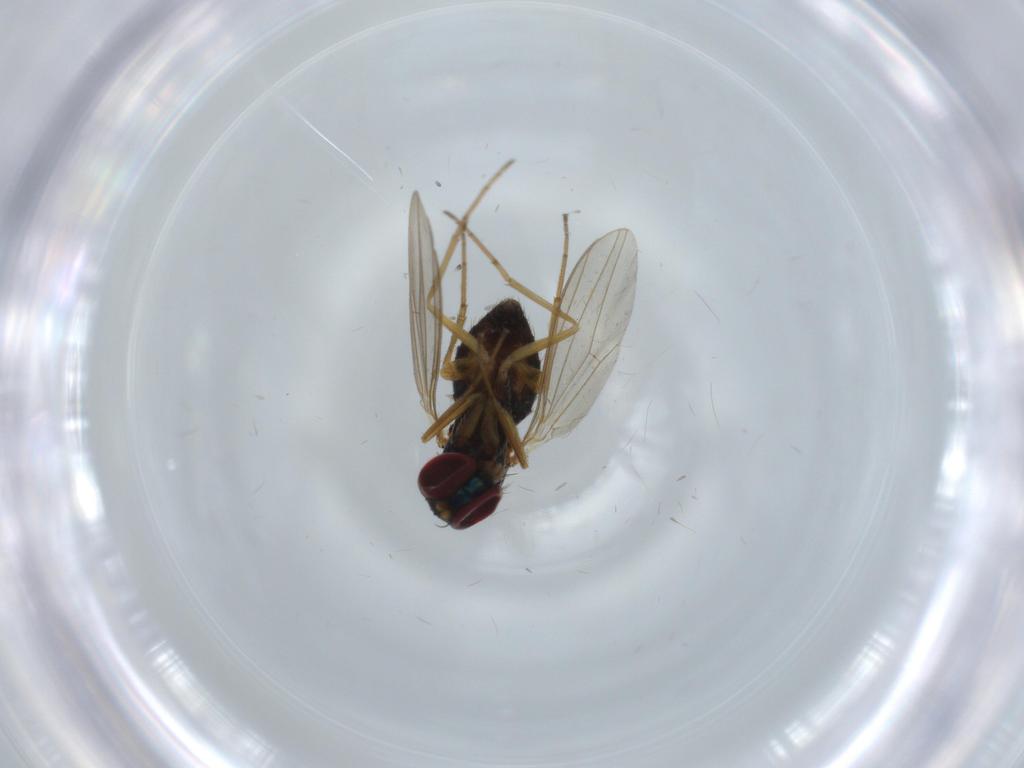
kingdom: Animalia
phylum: Arthropoda
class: Insecta
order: Diptera
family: Dolichopodidae
